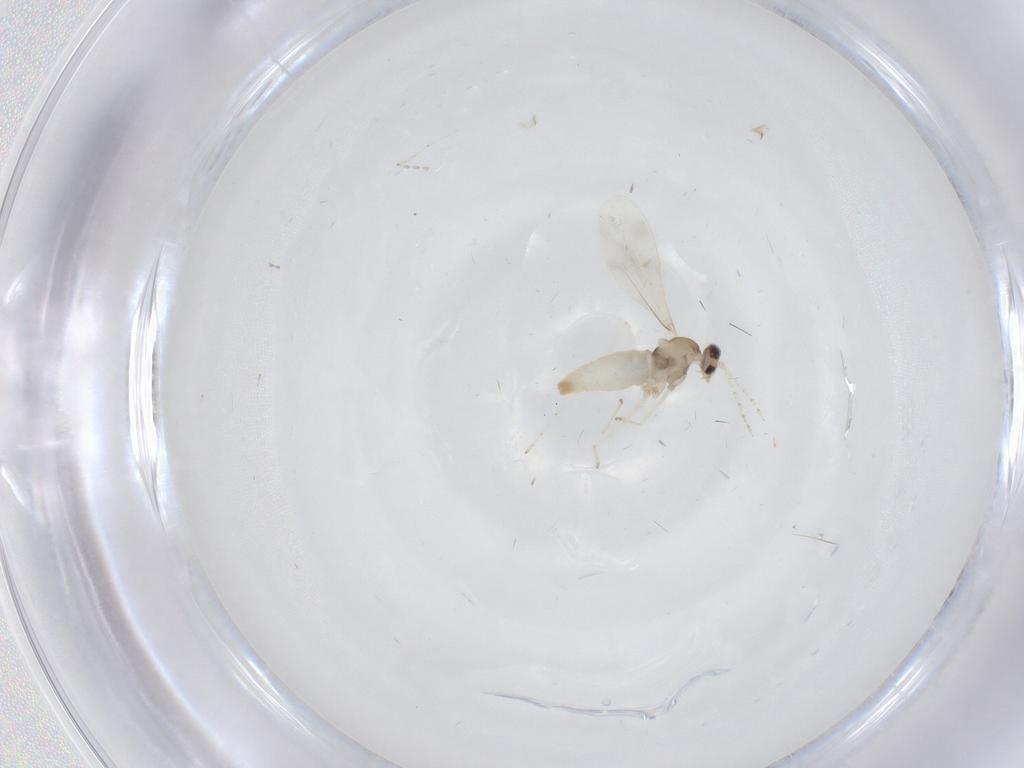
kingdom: Animalia
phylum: Arthropoda
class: Insecta
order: Diptera
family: Cecidomyiidae
